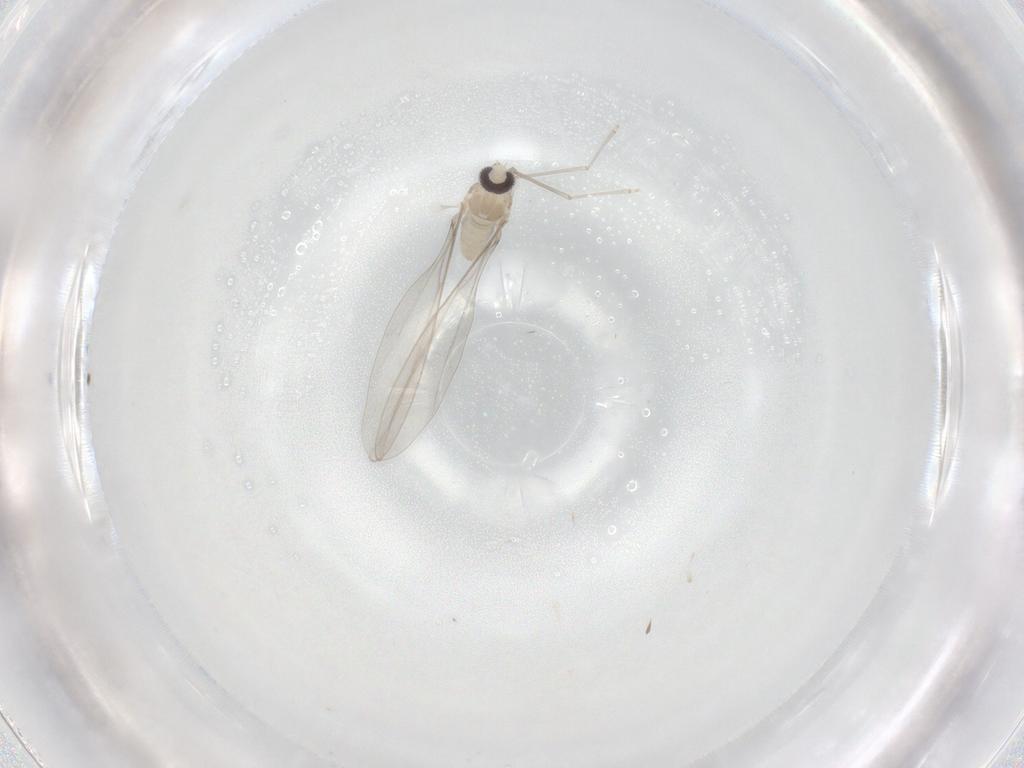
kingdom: Animalia
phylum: Arthropoda
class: Insecta
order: Diptera
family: Cecidomyiidae
